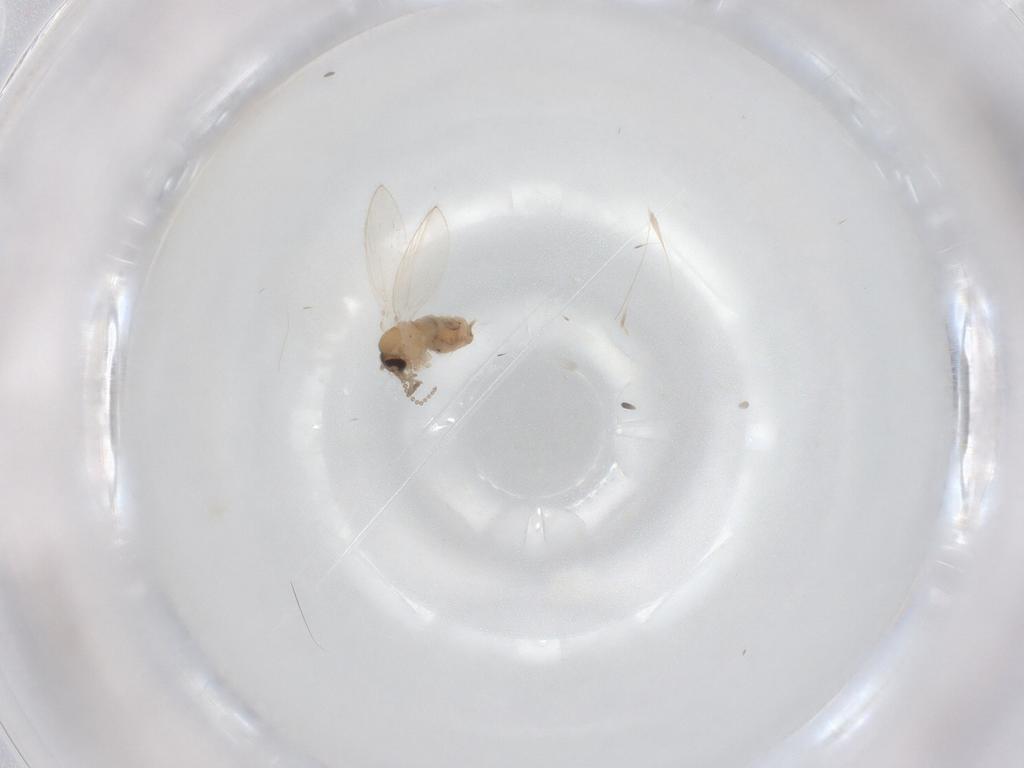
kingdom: Animalia
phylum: Arthropoda
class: Insecta
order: Diptera
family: Psychodidae
